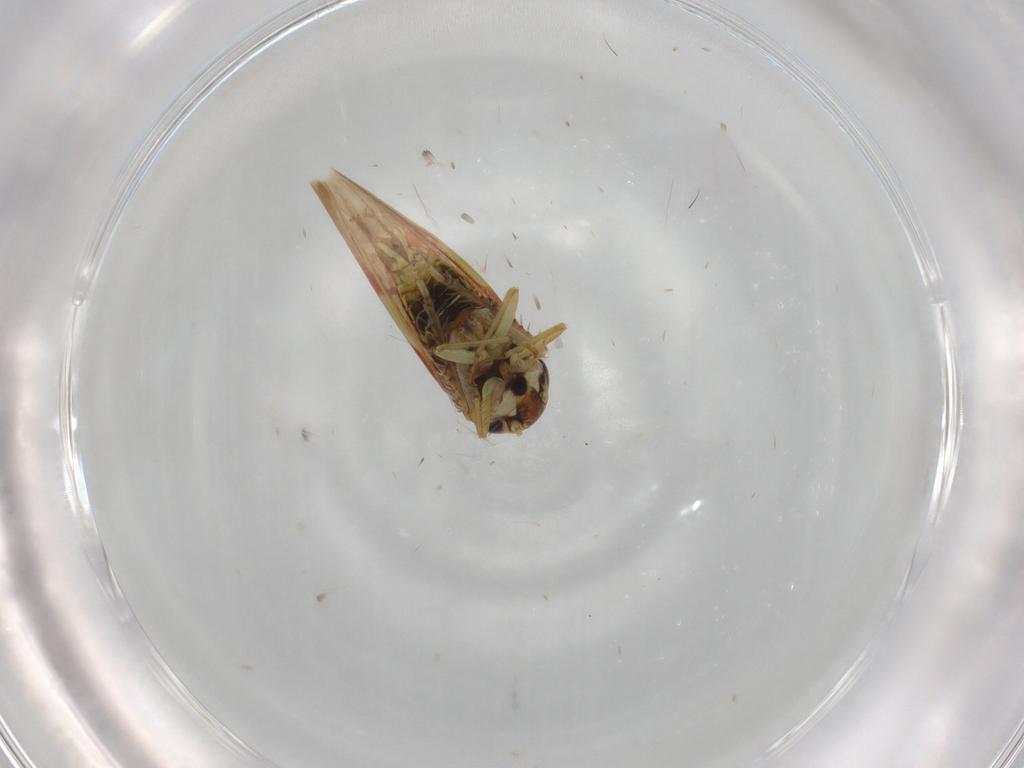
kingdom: Animalia
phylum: Arthropoda
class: Insecta
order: Hemiptera
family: Cicadellidae
